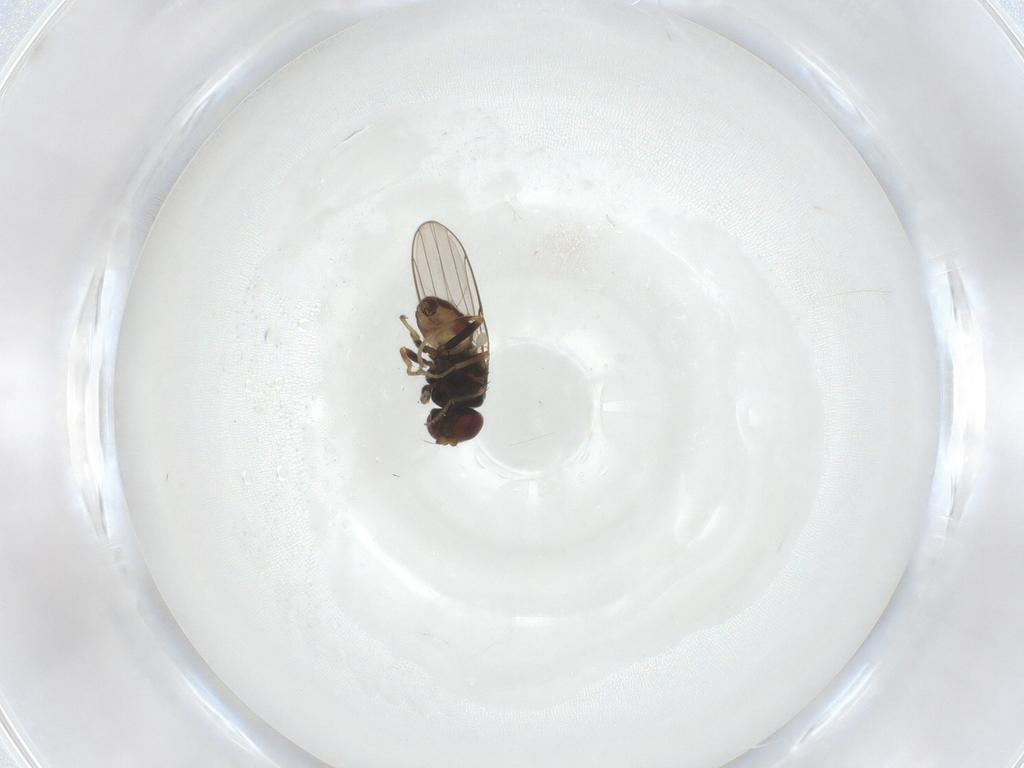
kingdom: Animalia
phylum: Arthropoda
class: Insecta
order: Diptera
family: Chloropidae
